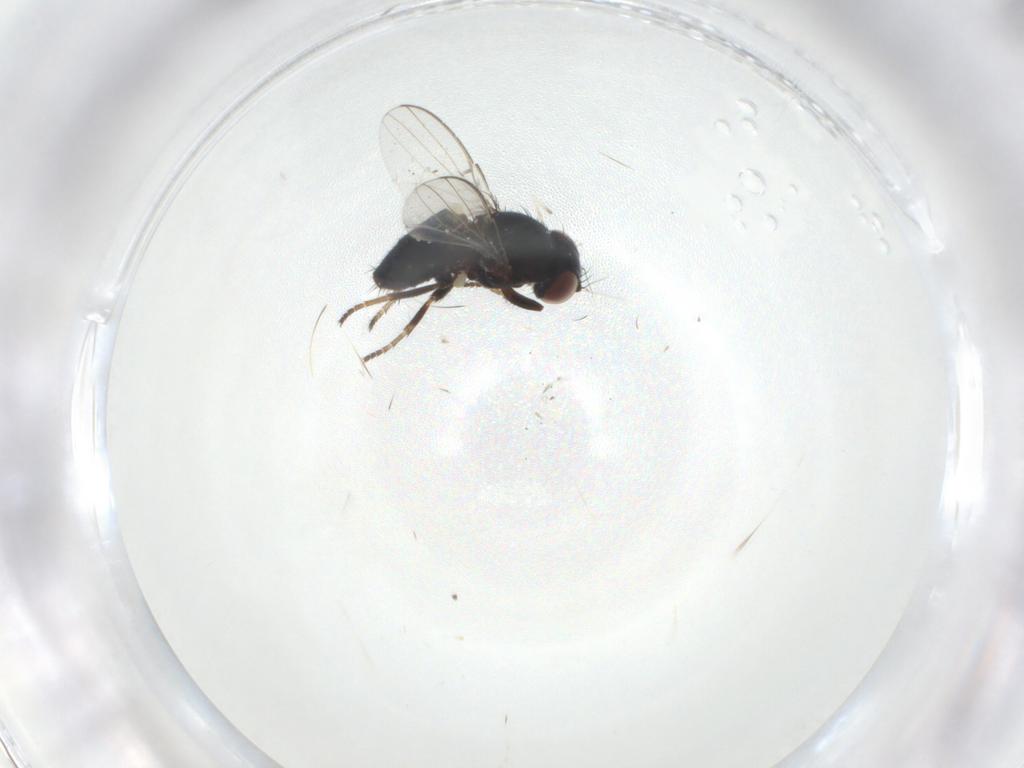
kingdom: Animalia
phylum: Arthropoda
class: Insecta
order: Diptera
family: Milichiidae
